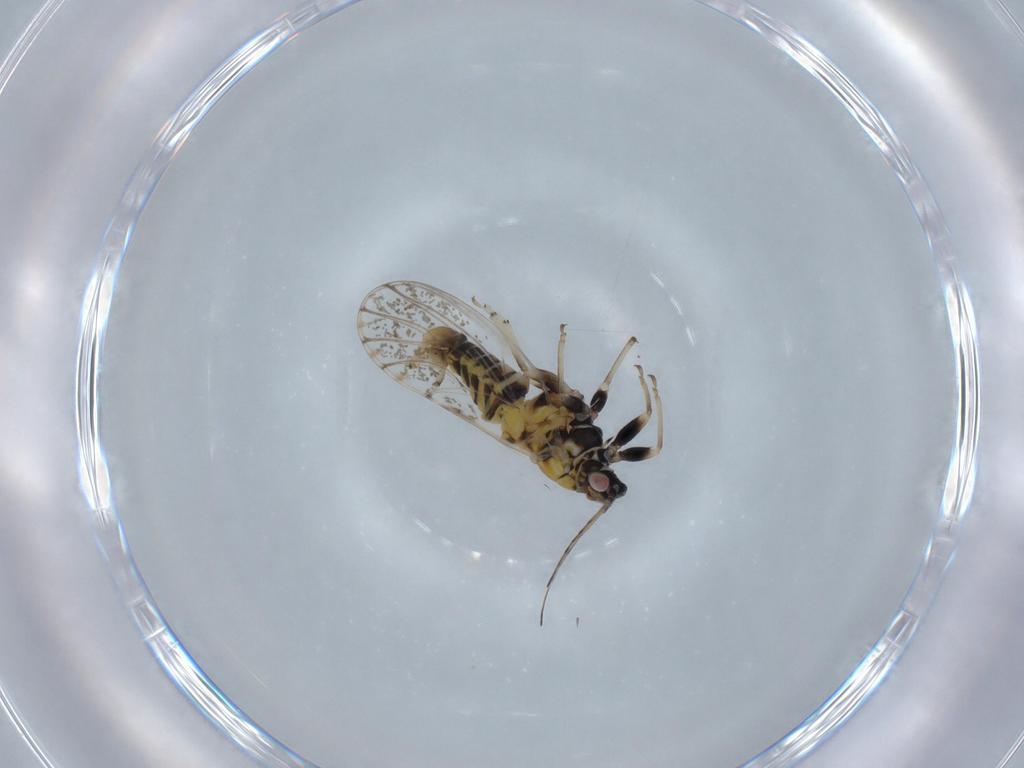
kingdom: Animalia
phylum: Arthropoda
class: Insecta
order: Hemiptera
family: Psyllidae
